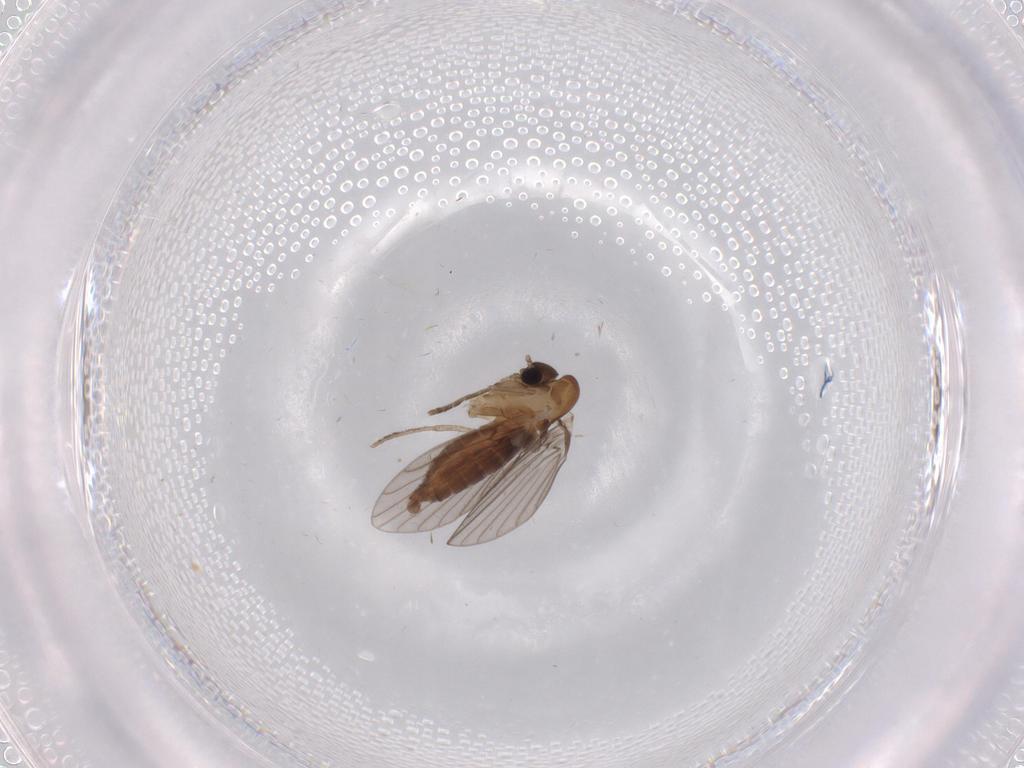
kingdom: Animalia
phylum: Arthropoda
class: Insecta
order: Diptera
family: Chironomidae
